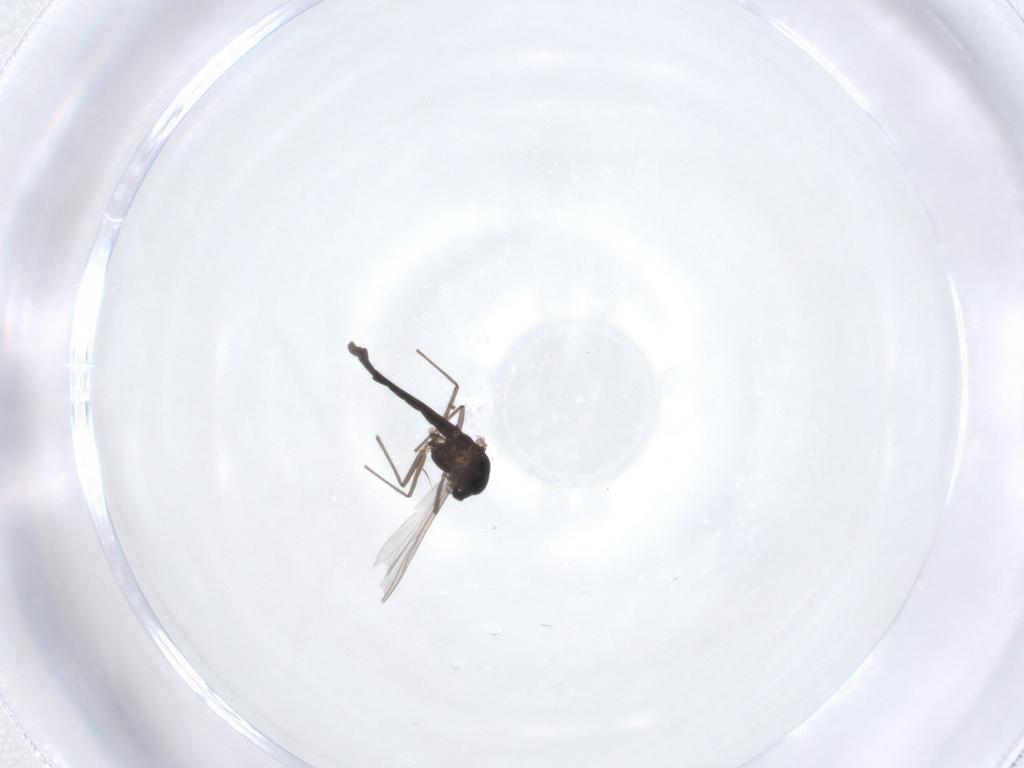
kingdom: Animalia
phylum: Arthropoda
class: Insecta
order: Diptera
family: Chironomidae
